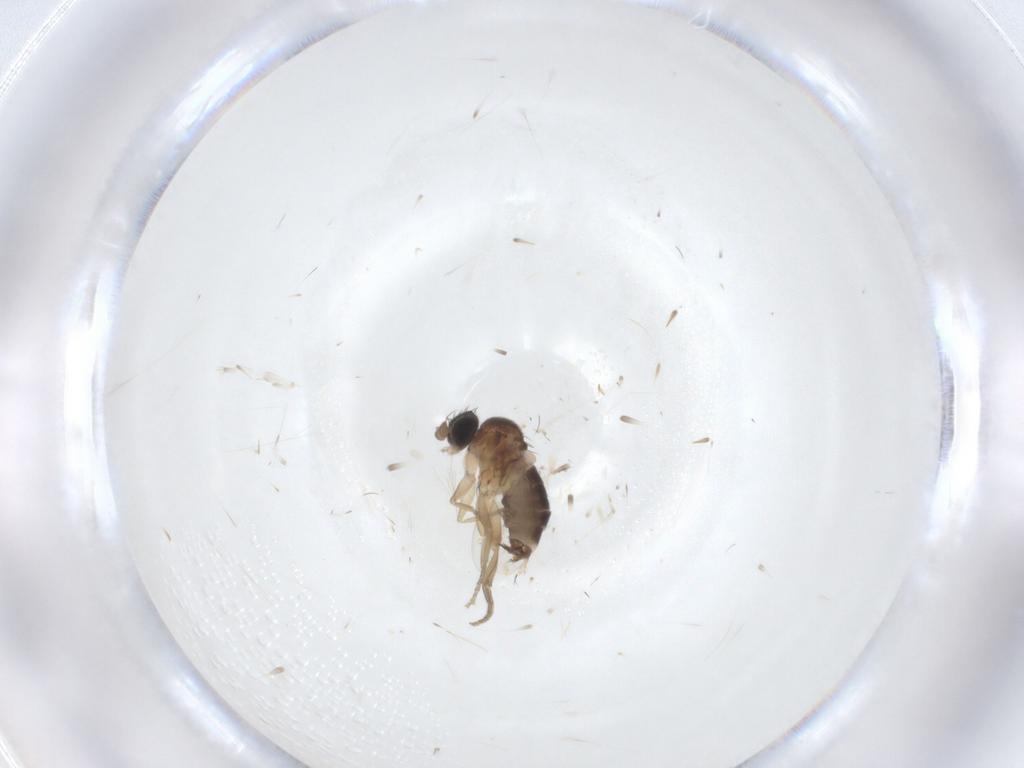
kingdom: Animalia
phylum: Arthropoda
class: Insecta
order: Diptera
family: Phoridae
